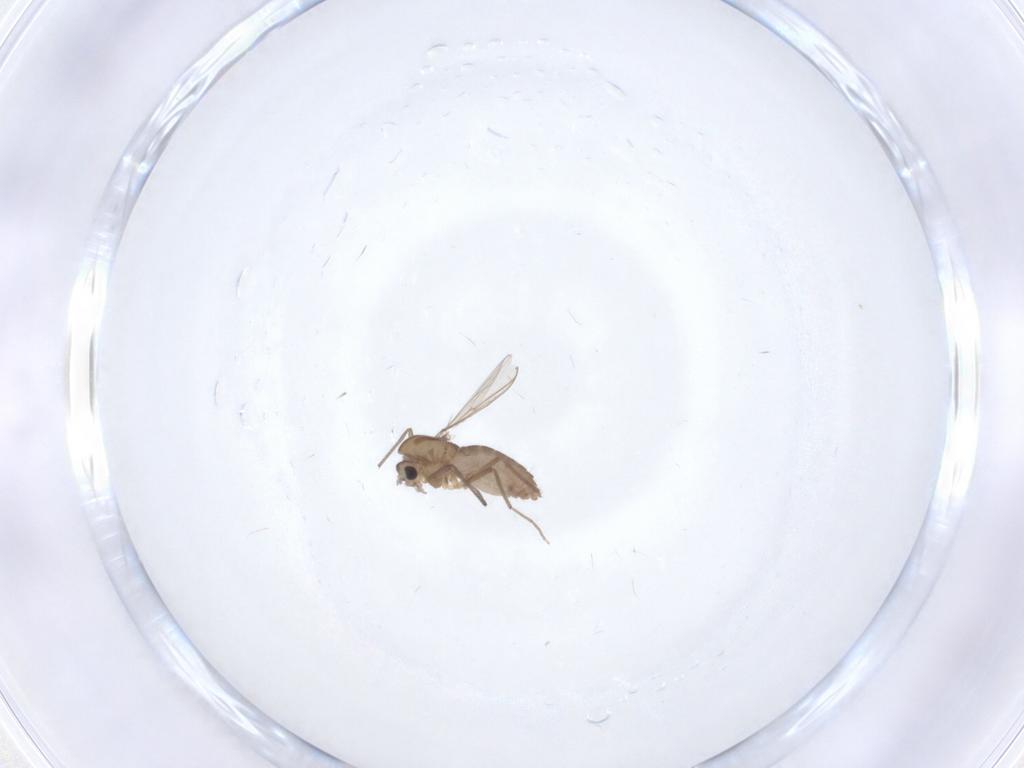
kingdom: Animalia
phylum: Arthropoda
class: Insecta
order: Diptera
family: Chironomidae
